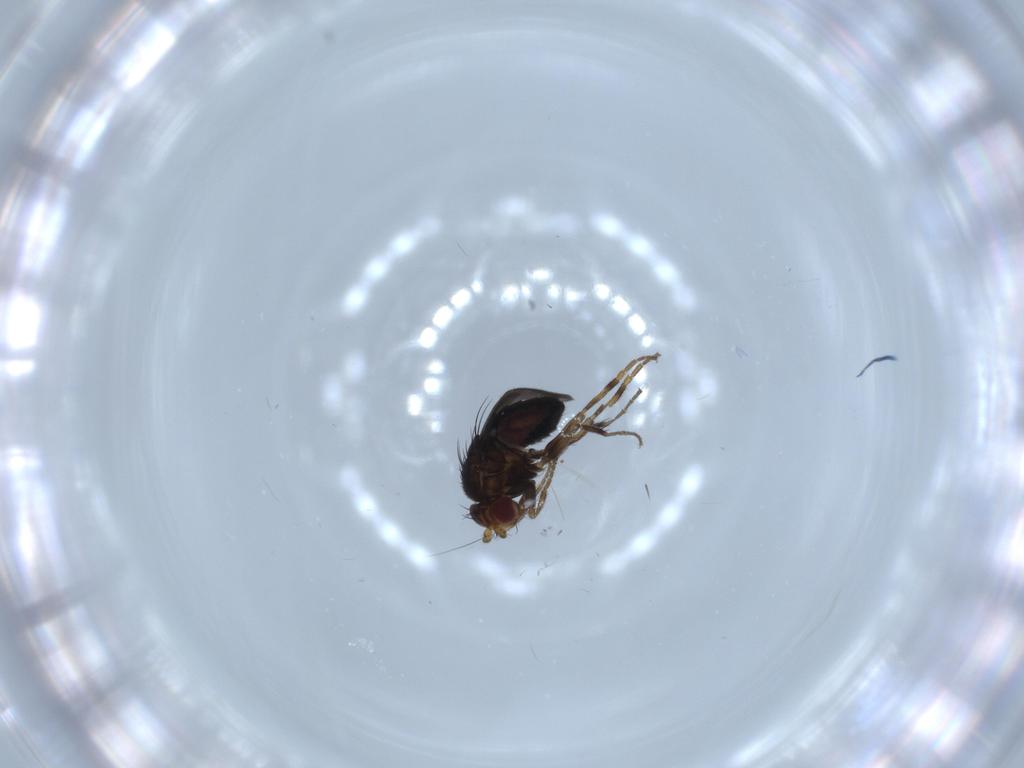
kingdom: Animalia
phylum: Arthropoda
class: Insecta
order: Diptera
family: Sphaeroceridae
